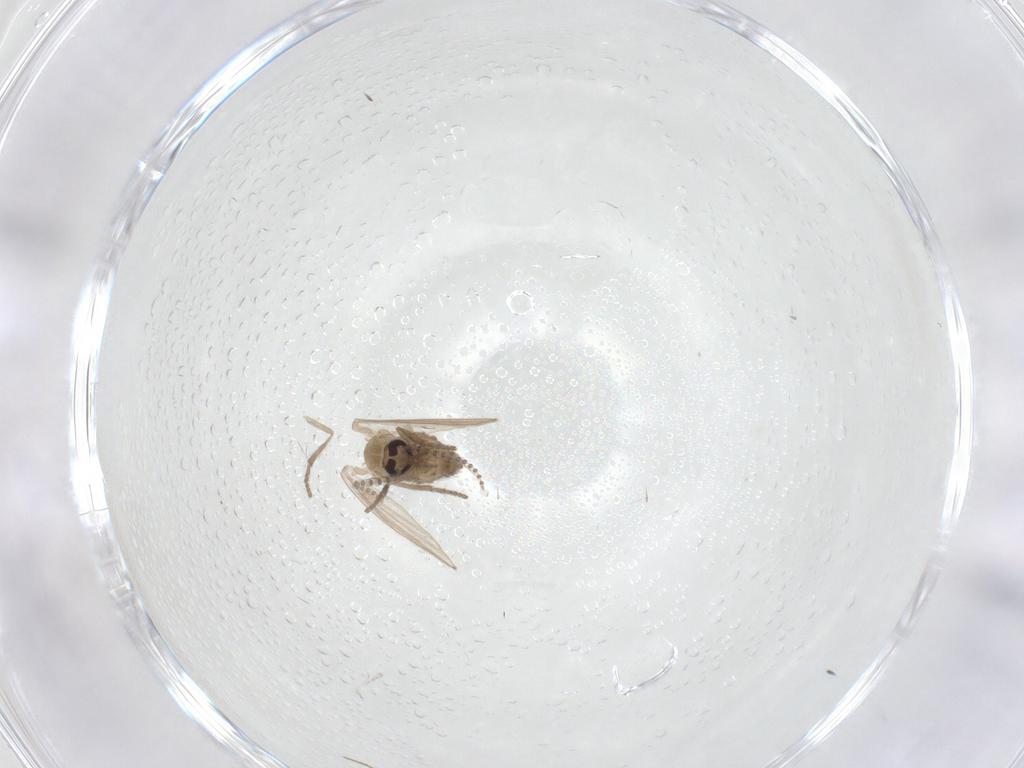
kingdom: Animalia
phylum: Arthropoda
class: Insecta
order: Diptera
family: Psychodidae
